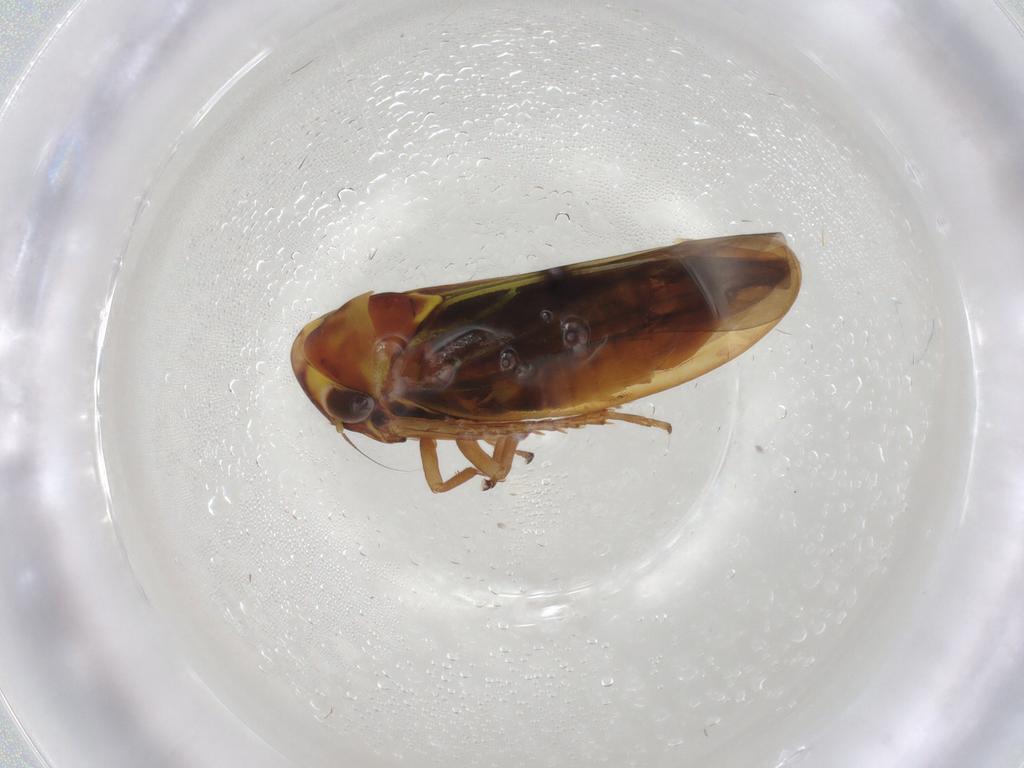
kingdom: Animalia
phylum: Arthropoda
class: Insecta
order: Hemiptera
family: Cicadellidae
